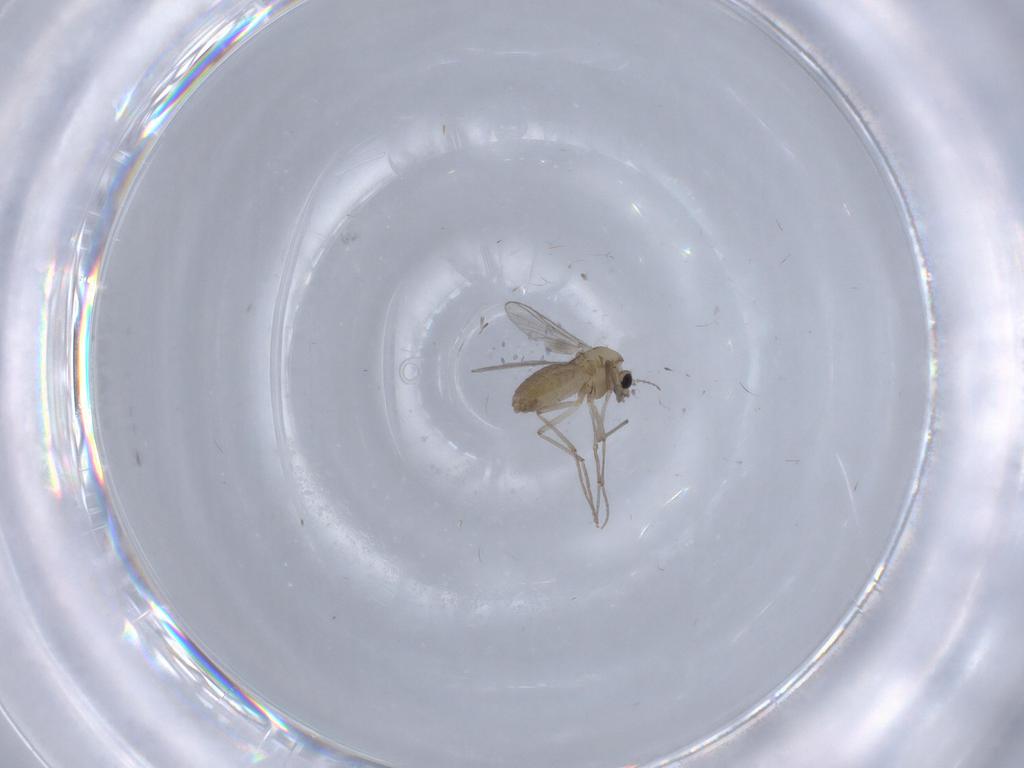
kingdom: Animalia
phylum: Arthropoda
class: Insecta
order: Diptera
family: Chironomidae
